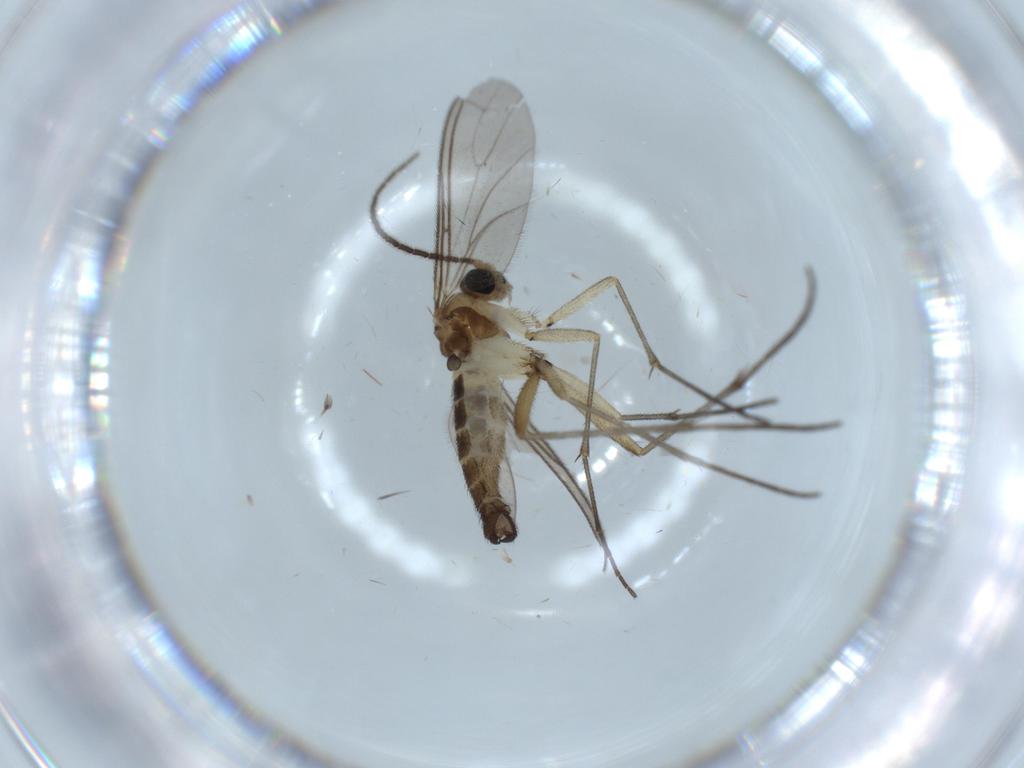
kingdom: Animalia
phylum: Arthropoda
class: Insecta
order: Diptera
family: Sciaridae
